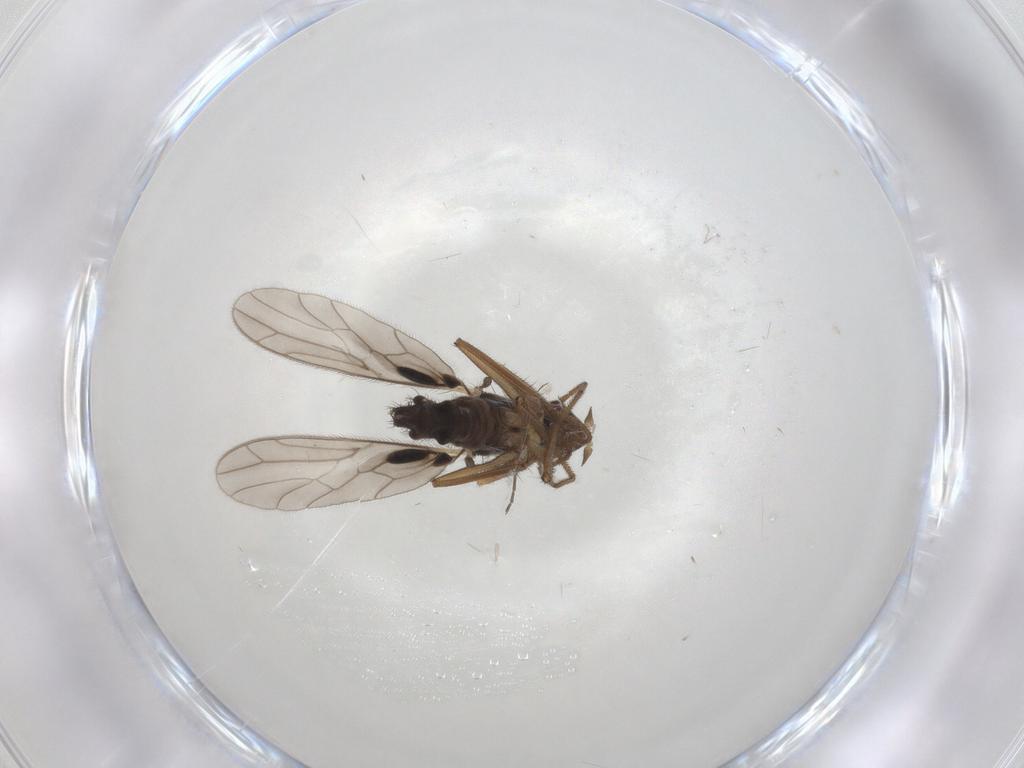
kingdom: Animalia
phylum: Arthropoda
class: Insecta
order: Diptera
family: Empididae
